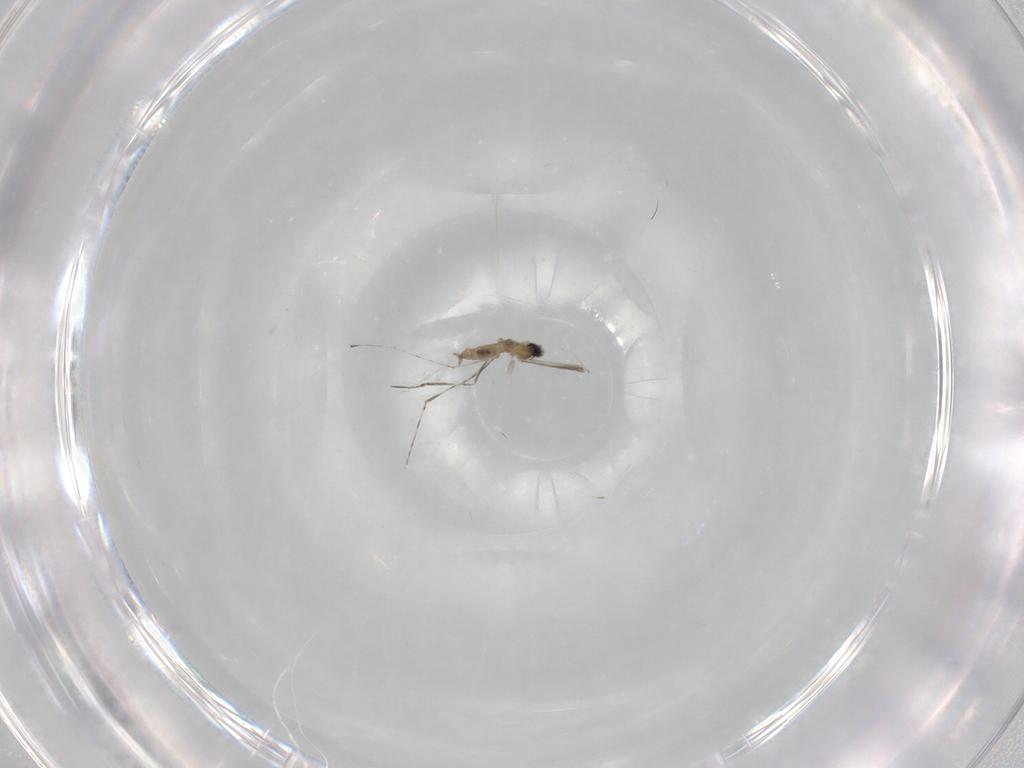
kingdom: Animalia
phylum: Arthropoda
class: Insecta
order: Diptera
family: Cecidomyiidae
